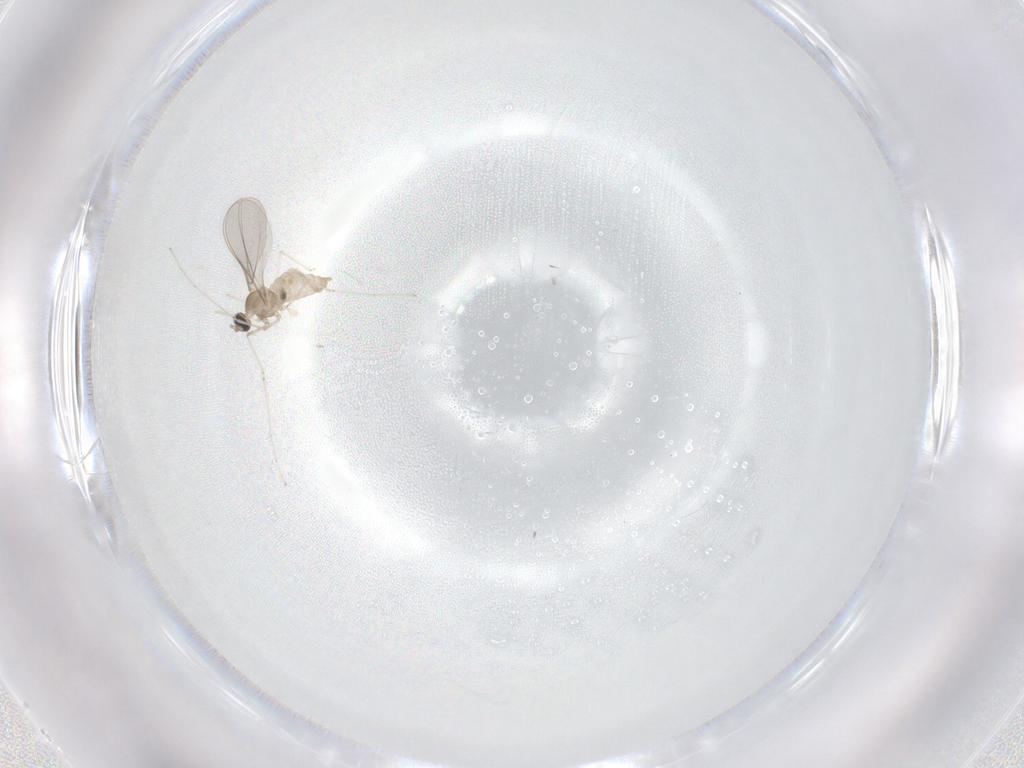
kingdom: Animalia
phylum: Arthropoda
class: Insecta
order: Diptera
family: Cecidomyiidae
